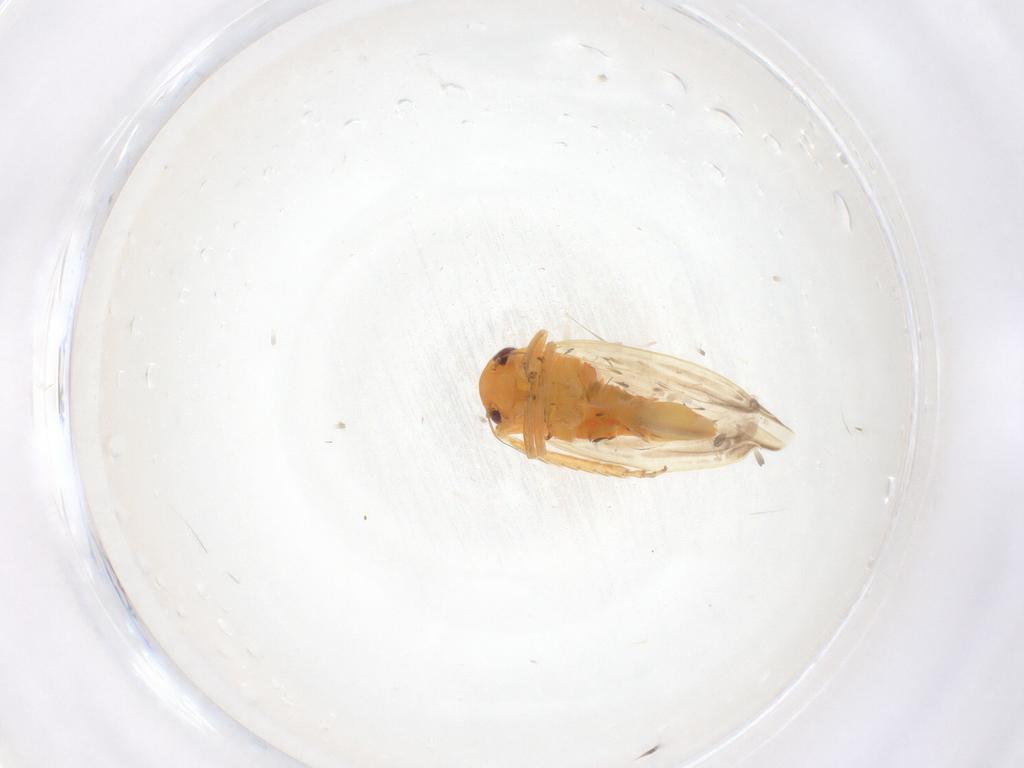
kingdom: Animalia
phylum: Arthropoda
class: Insecta
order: Hemiptera
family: Cicadellidae
